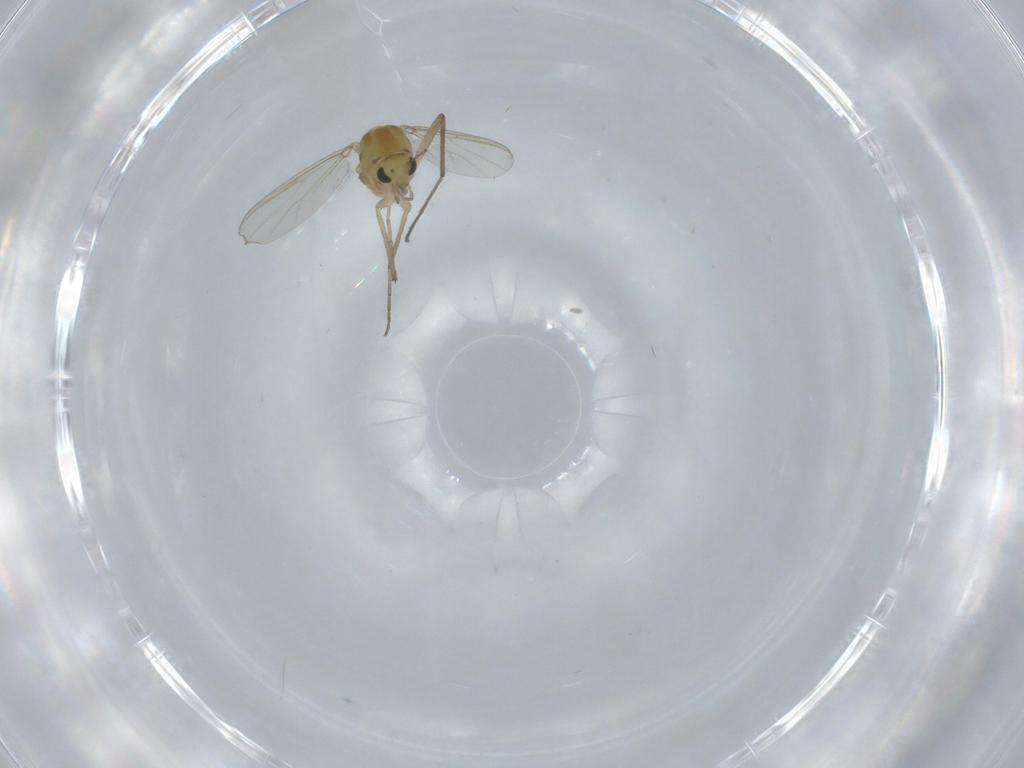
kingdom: Animalia
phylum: Arthropoda
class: Insecta
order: Diptera
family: Chironomidae
